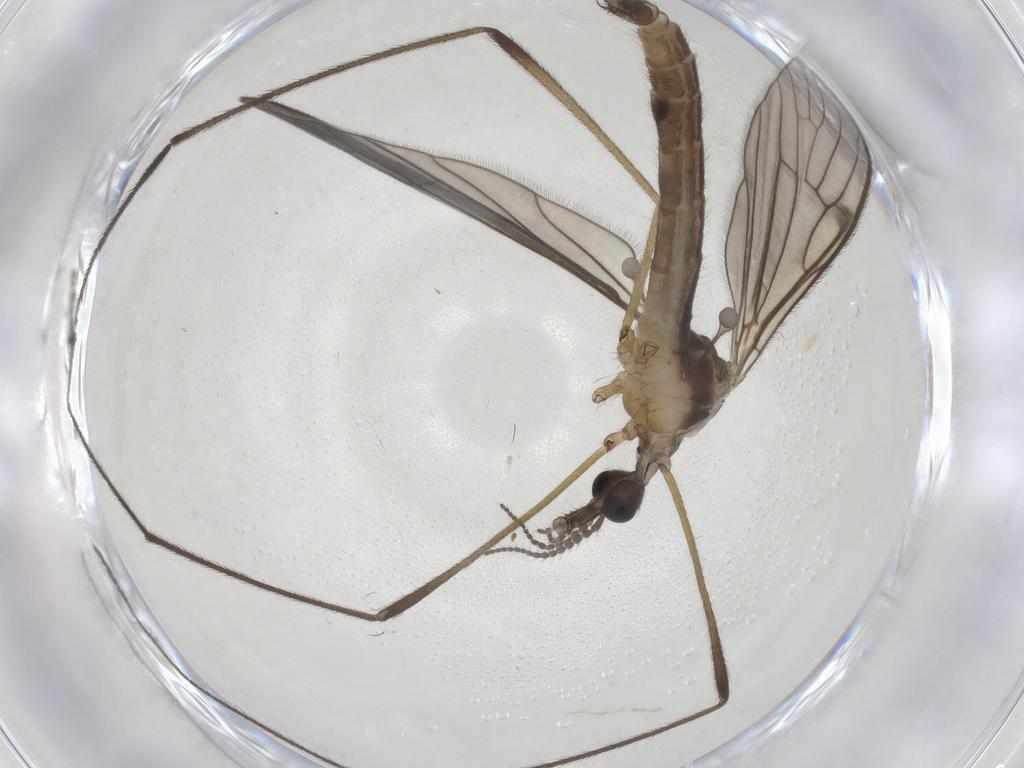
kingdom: Animalia
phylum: Arthropoda
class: Insecta
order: Diptera
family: Limoniidae
